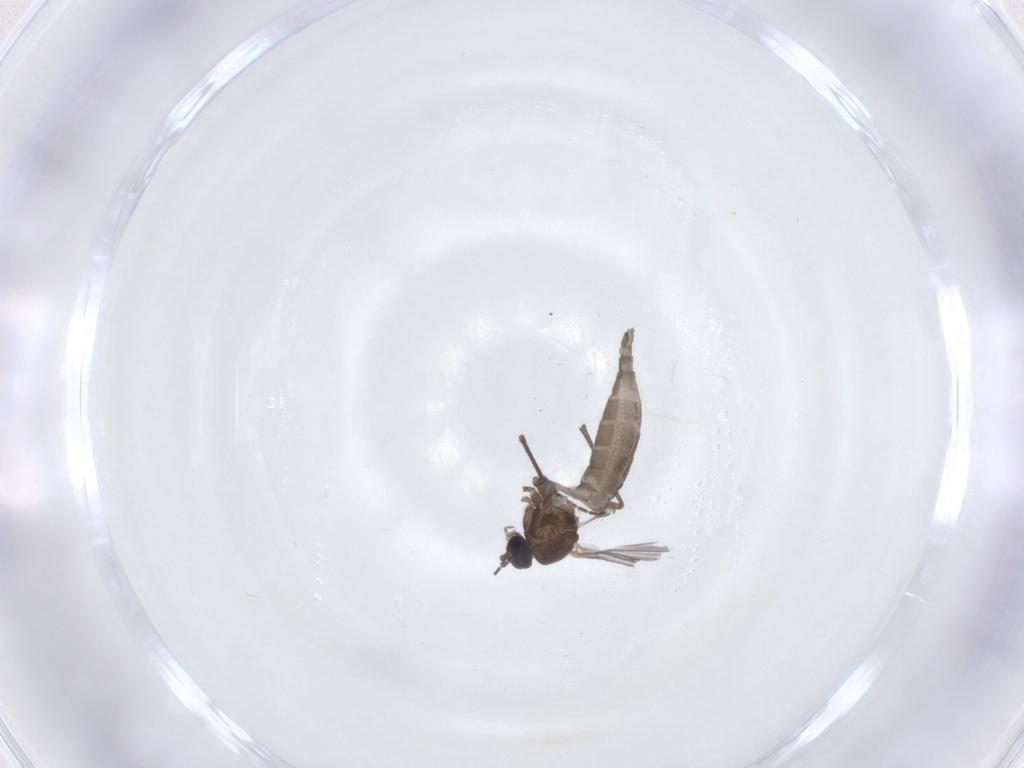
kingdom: Animalia
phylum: Arthropoda
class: Insecta
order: Diptera
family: Sciaridae
